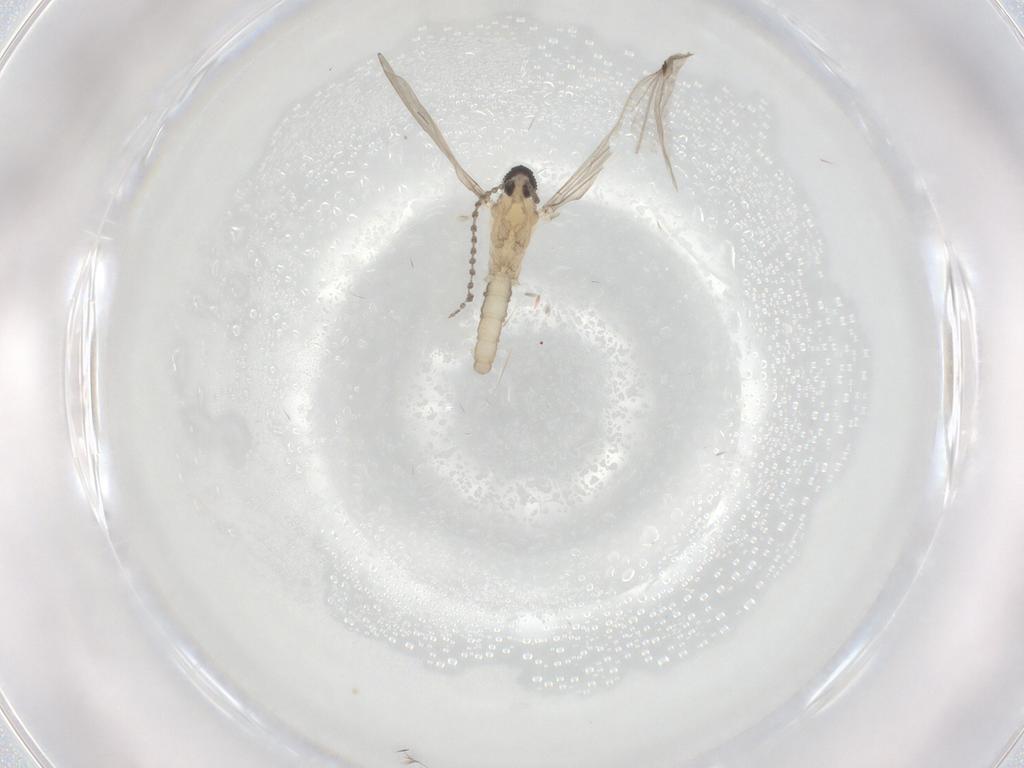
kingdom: Animalia
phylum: Arthropoda
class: Insecta
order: Diptera
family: Cecidomyiidae
